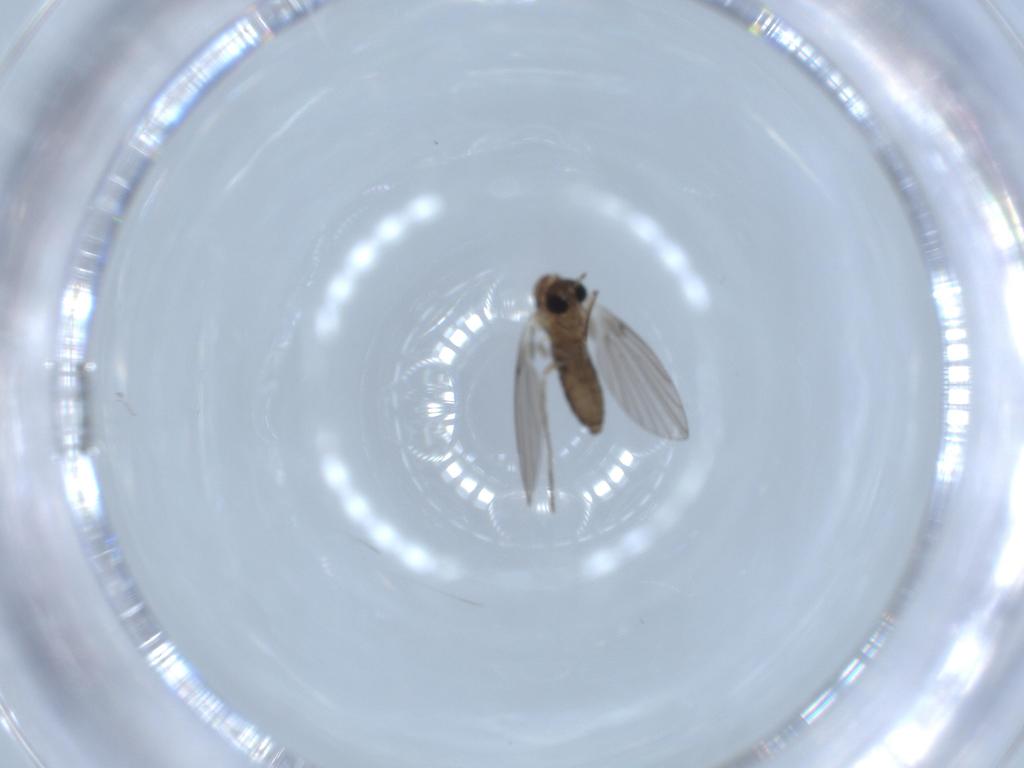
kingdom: Animalia
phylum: Arthropoda
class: Insecta
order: Diptera
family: Psychodidae
